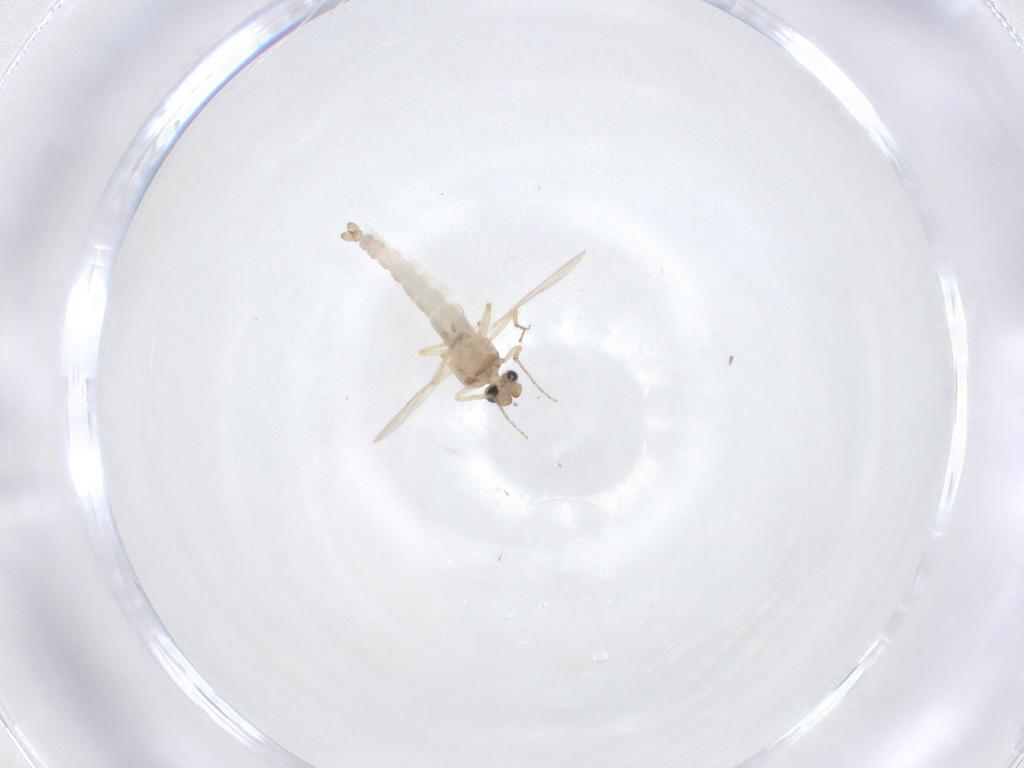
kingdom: Animalia
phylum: Arthropoda
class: Insecta
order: Diptera
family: Ceratopogonidae
